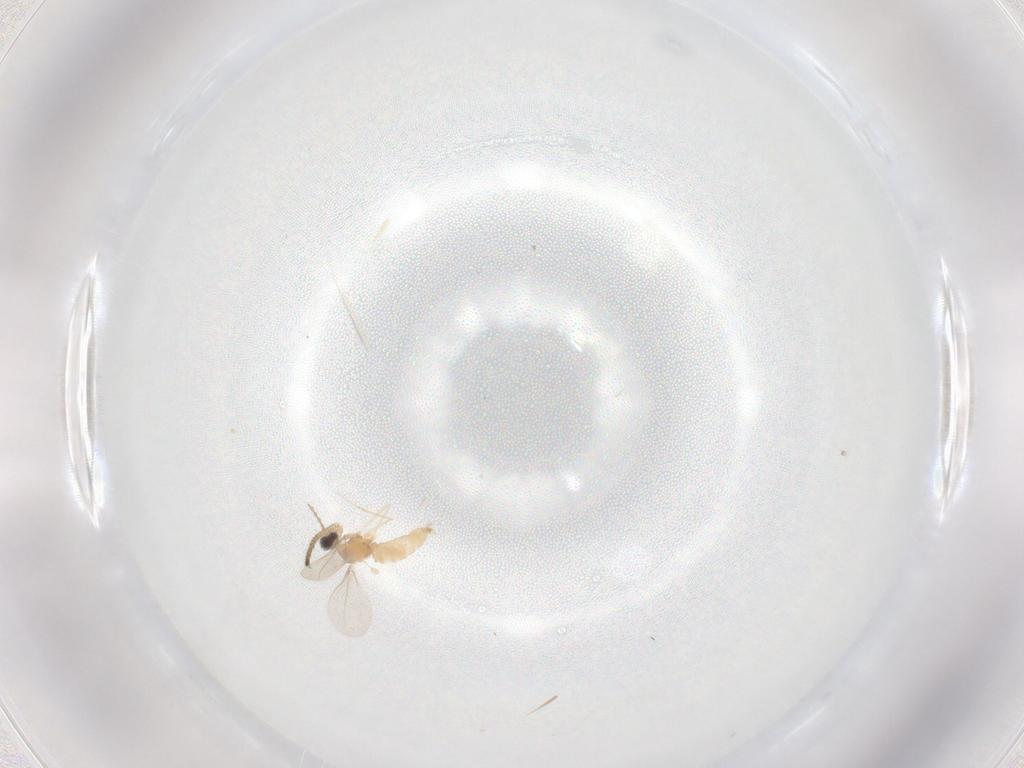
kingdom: Animalia
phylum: Arthropoda
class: Insecta
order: Diptera
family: Cecidomyiidae
